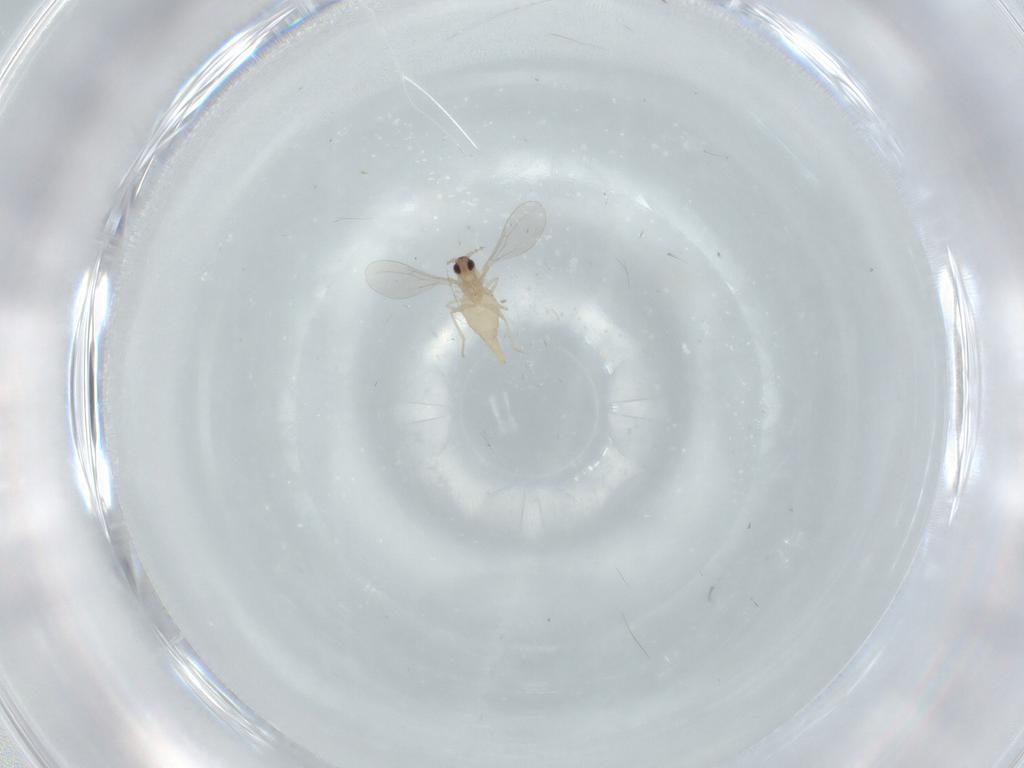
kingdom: Animalia
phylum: Arthropoda
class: Insecta
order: Diptera
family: Cecidomyiidae
